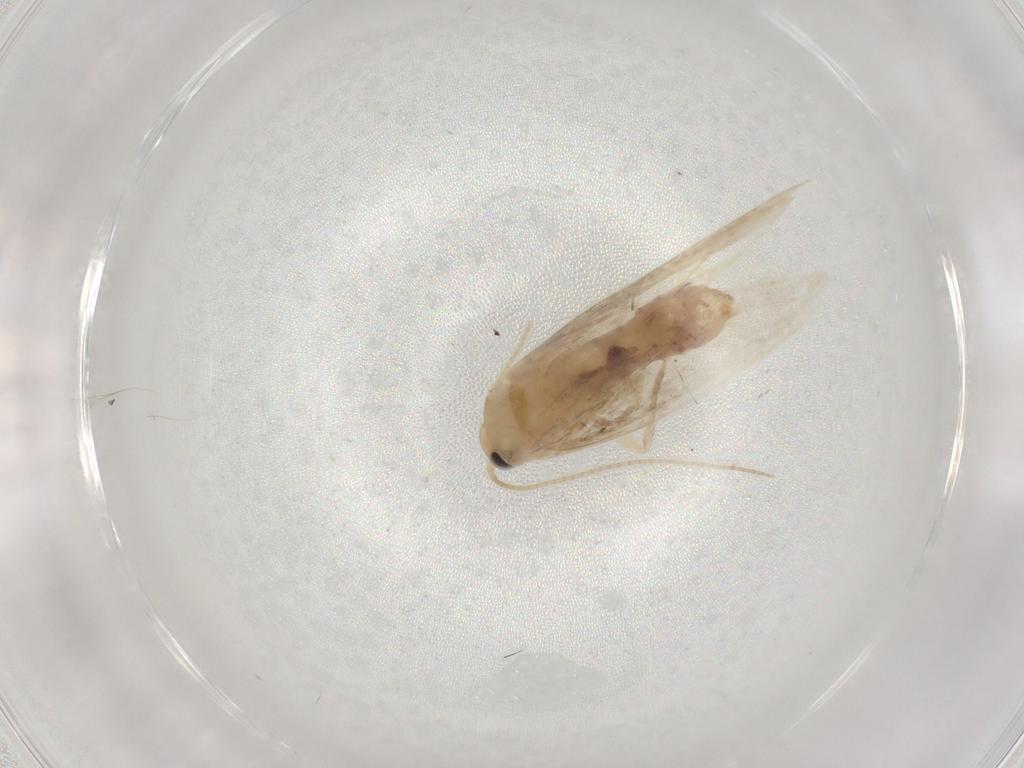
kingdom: Animalia
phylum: Arthropoda
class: Insecta
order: Lepidoptera
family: Dryadaulidae
